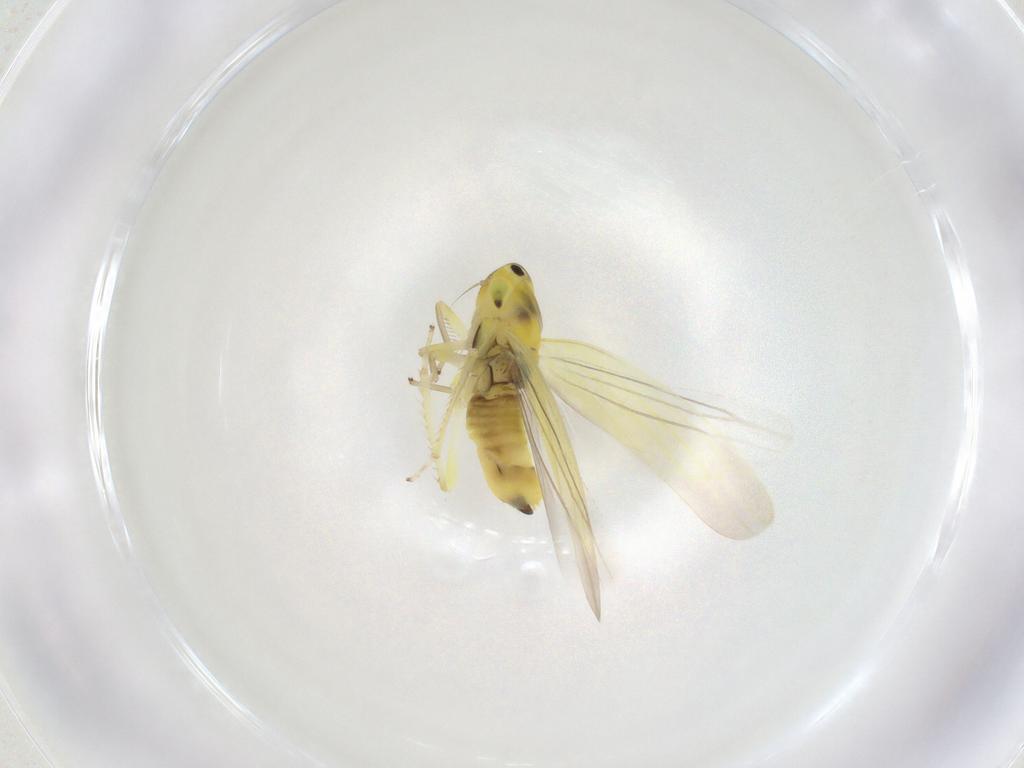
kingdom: Animalia
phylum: Arthropoda
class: Insecta
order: Hemiptera
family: Cicadellidae
